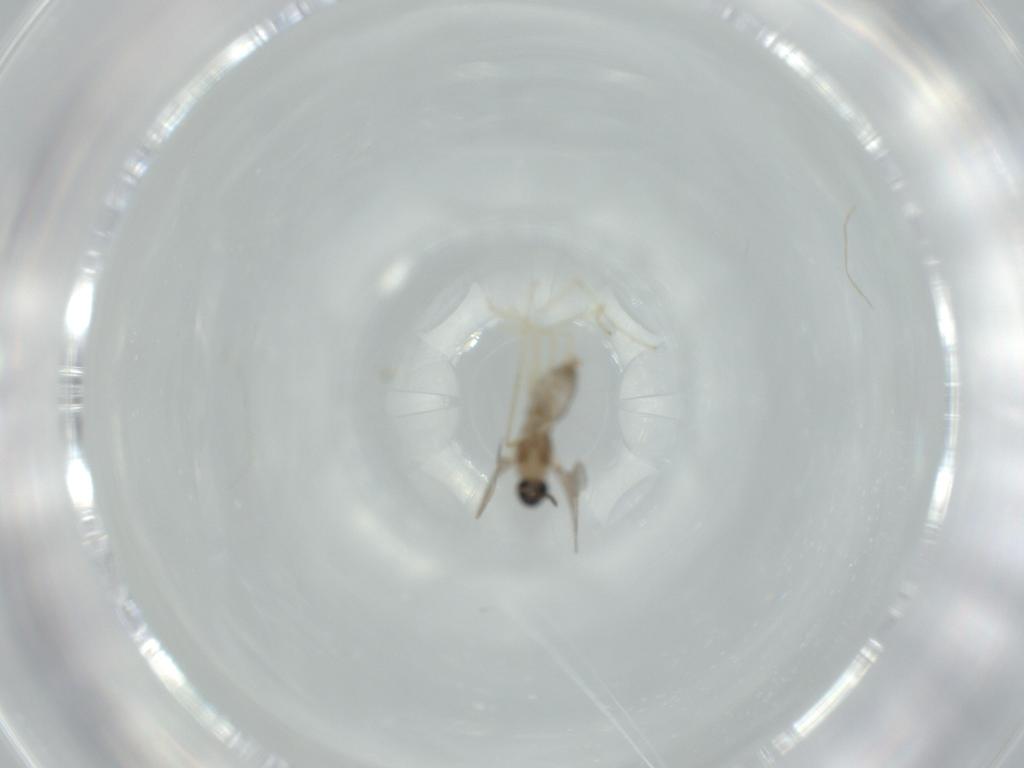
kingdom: Animalia
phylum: Arthropoda
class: Insecta
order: Diptera
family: Cecidomyiidae
